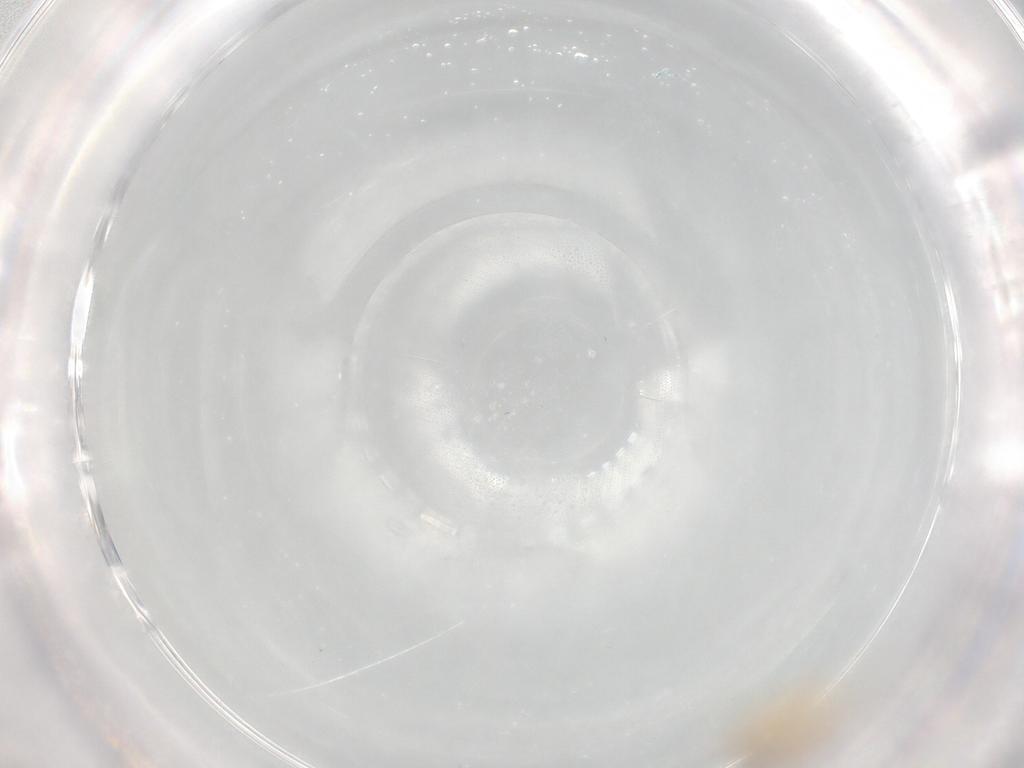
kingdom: Animalia
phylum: Arthropoda
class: Insecta
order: Diptera
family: Cecidomyiidae
